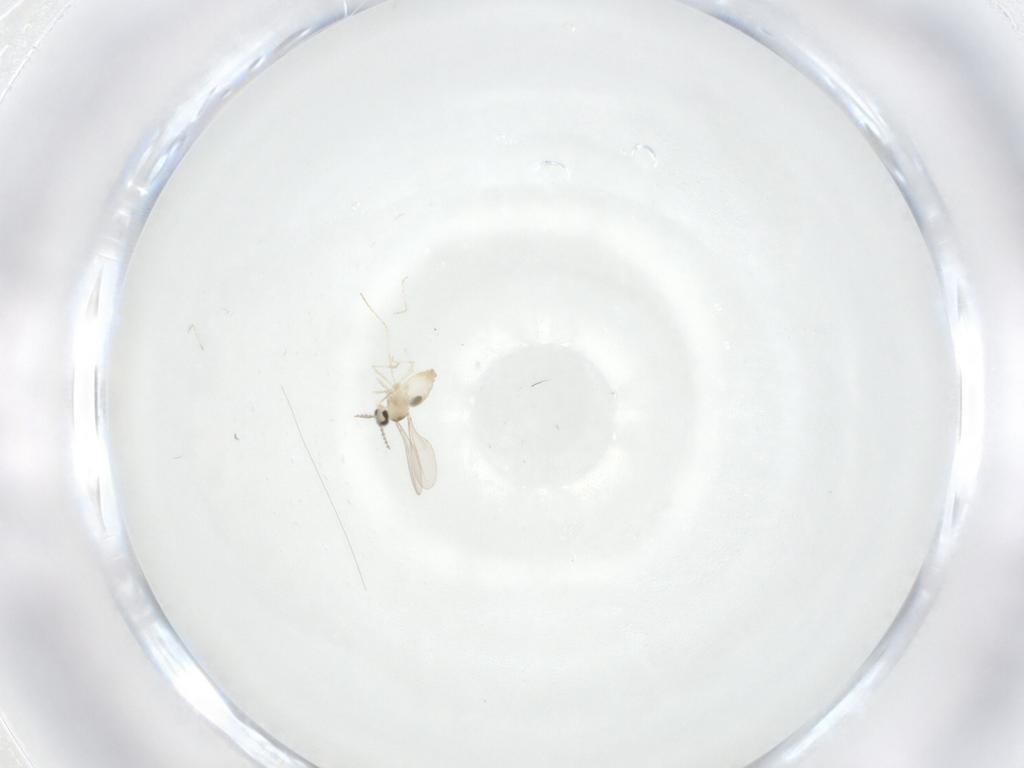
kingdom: Animalia
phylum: Arthropoda
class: Insecta
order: Diptera
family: Cecidomyiidae
